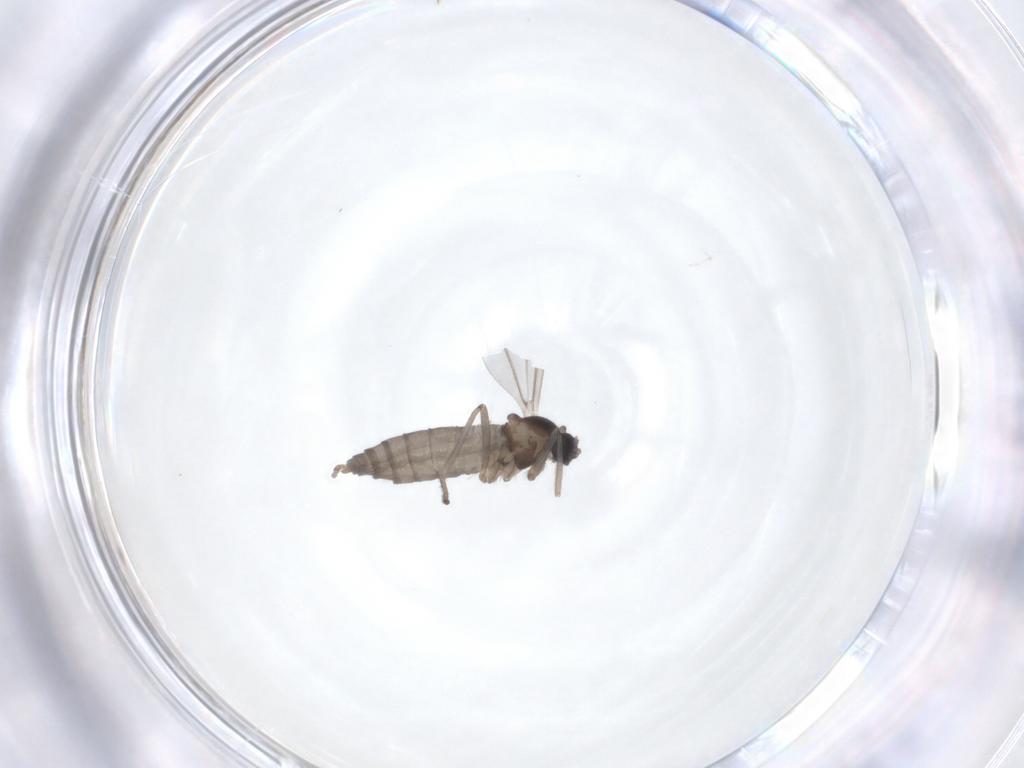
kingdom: Animalia
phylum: Arthropoda
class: Insecta
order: Diptera
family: Cecidomyiidae
